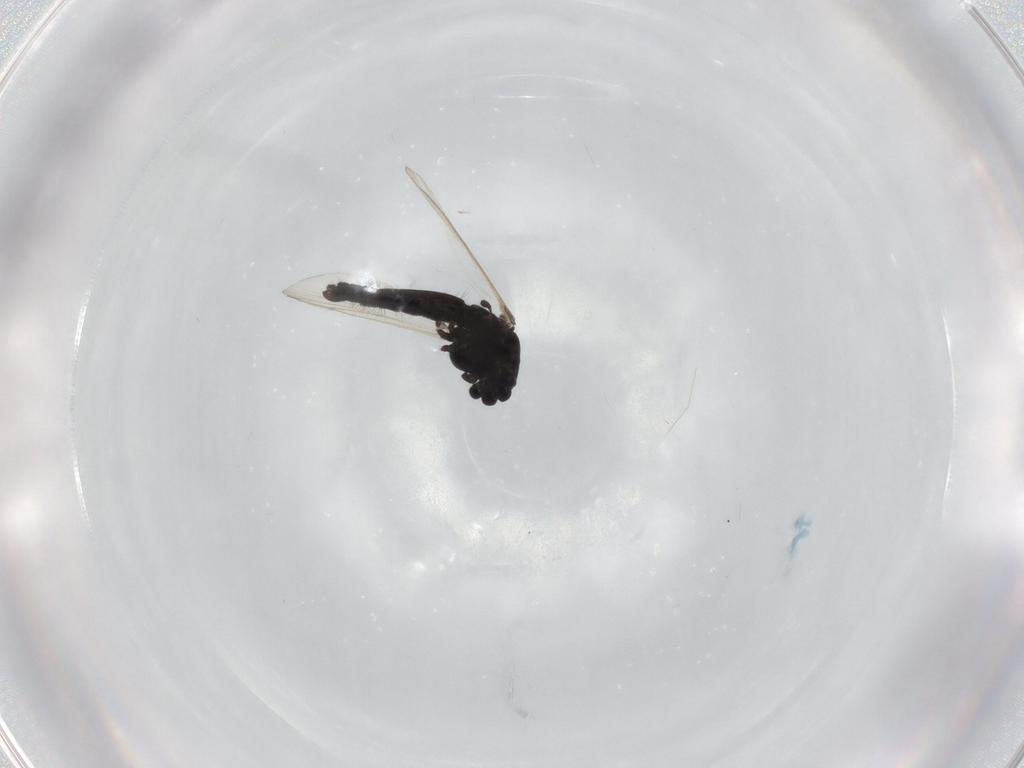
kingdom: Animalia
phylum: Arthropoda
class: Insecta
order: Diptera
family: Chironomidae
